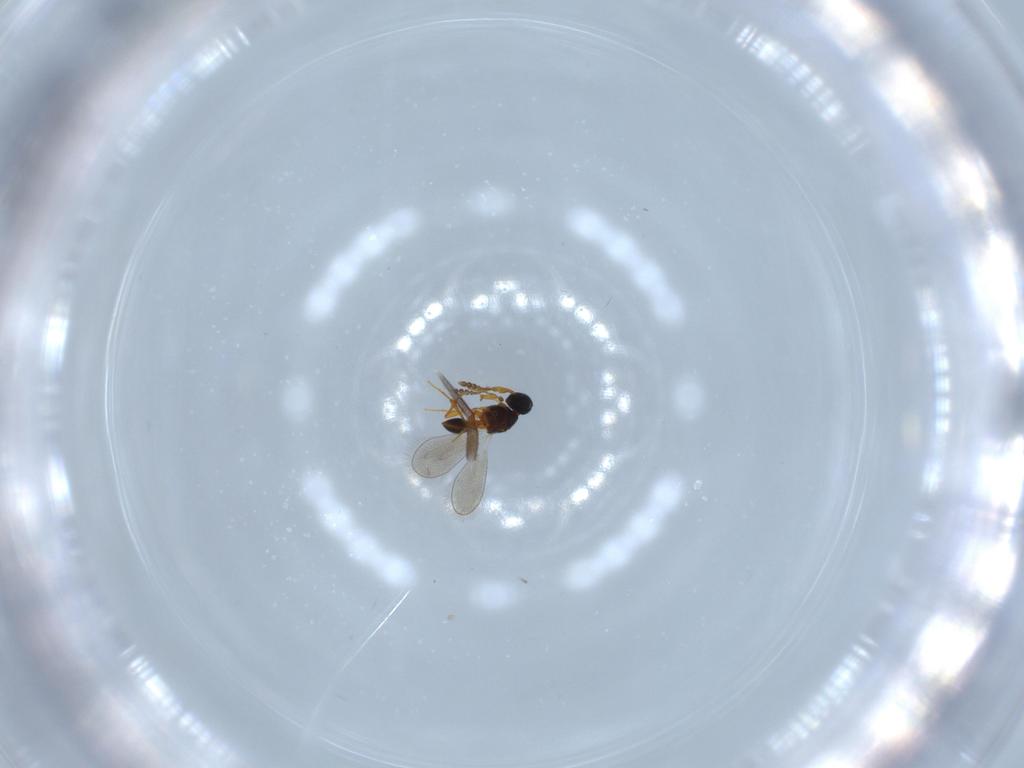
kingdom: Animalia
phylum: Arthropoda
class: Insecta
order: Hymenoptera
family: Platygastridae
